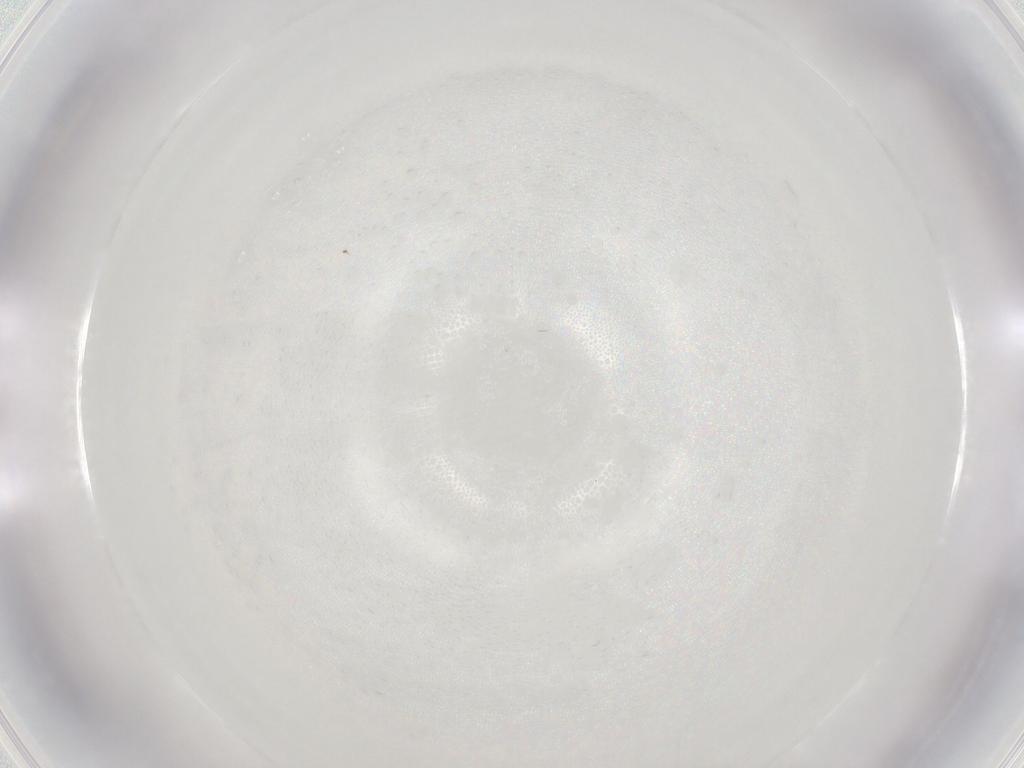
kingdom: Animalia
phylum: Arthropoda
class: Insecta
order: Hymenoptera
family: Scelionidae
